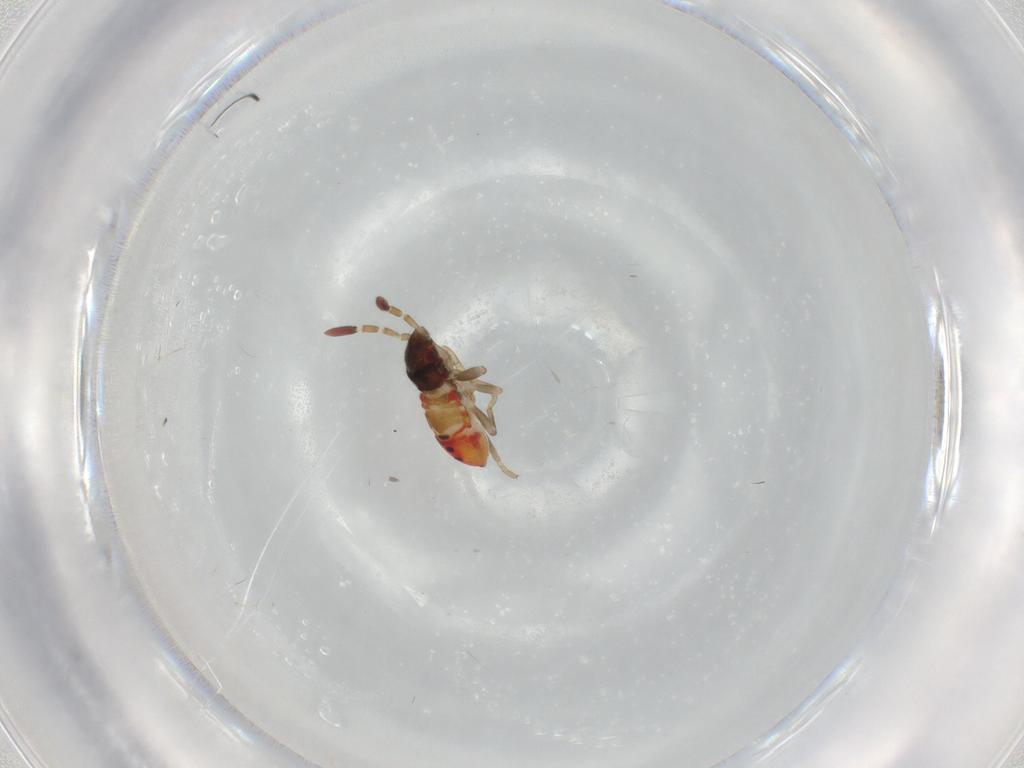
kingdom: Animalia
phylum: Arthropoda
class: Insecta
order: Hemiptera
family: Rhyparochromidae
